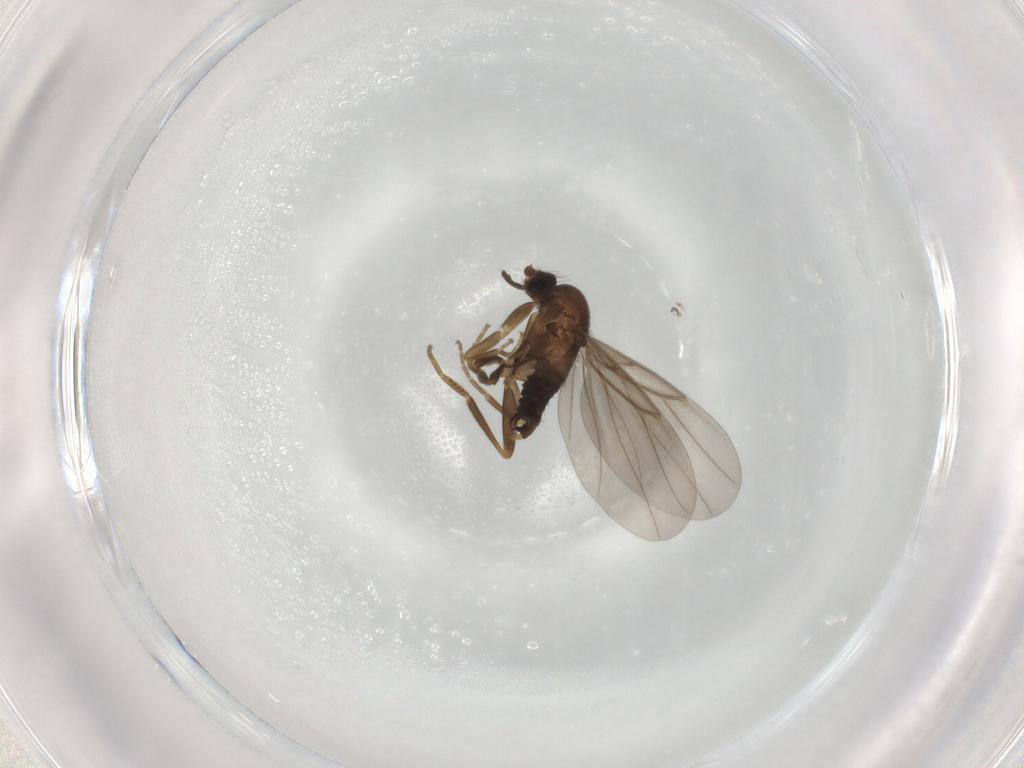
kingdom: Animalia
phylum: Arthropoda
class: Insecta
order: Diptera
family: Phoridae
